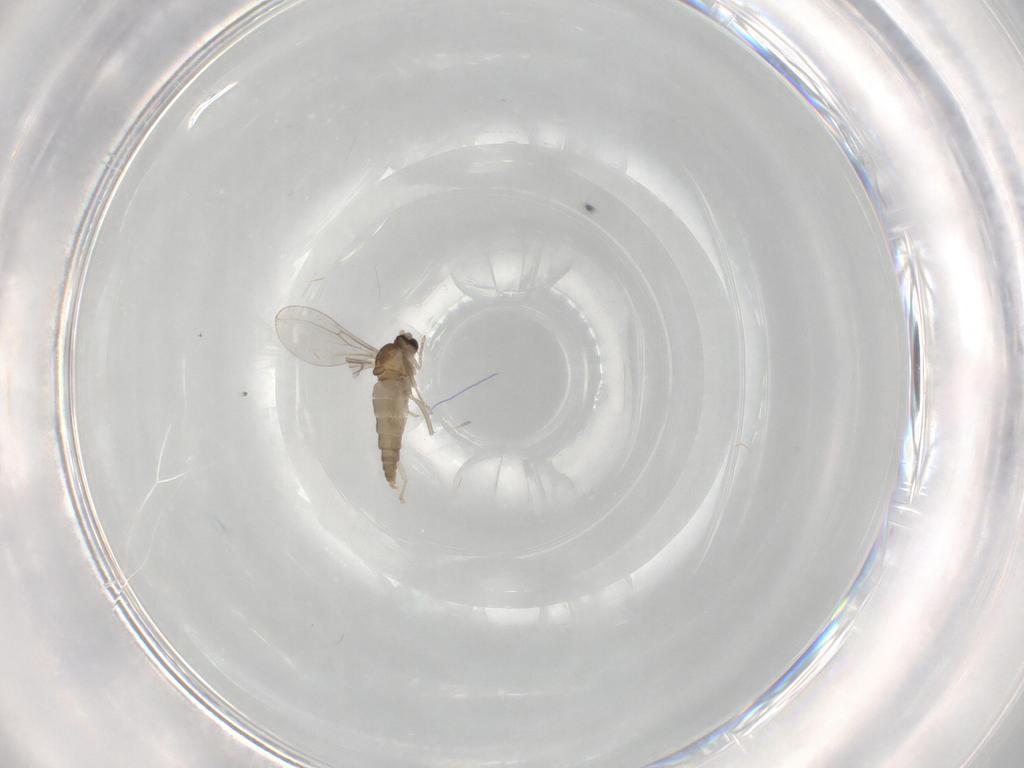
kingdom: Animalia
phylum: Arthropoda
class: Insecta
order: Diptera
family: Cecidomyiidae
